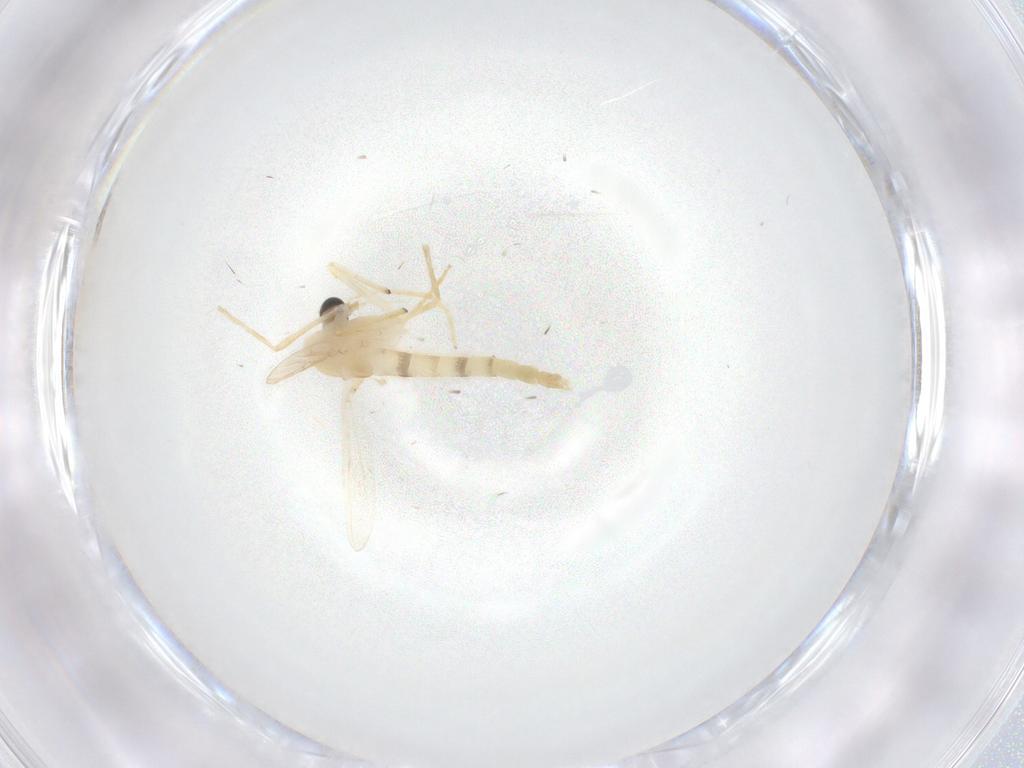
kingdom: Animalia
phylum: Arthropoda
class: Insecta
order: Diptera
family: Chironomidae
